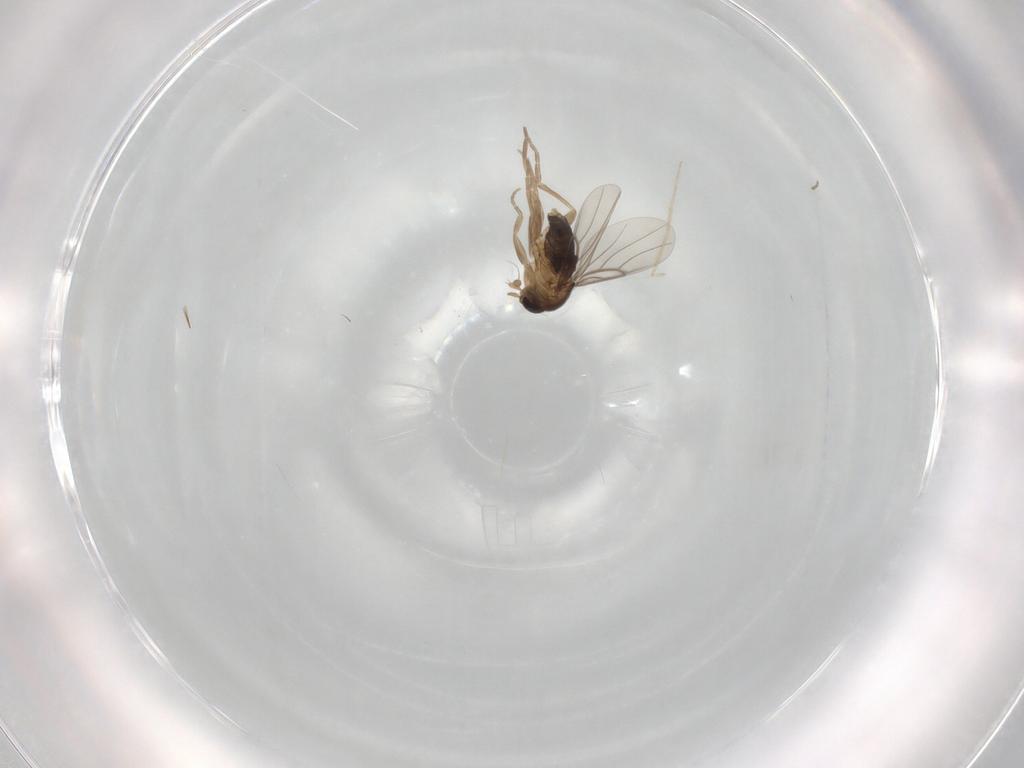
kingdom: Animalia
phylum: Arthropoda
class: Insecta
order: Diptera
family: Phoridae
